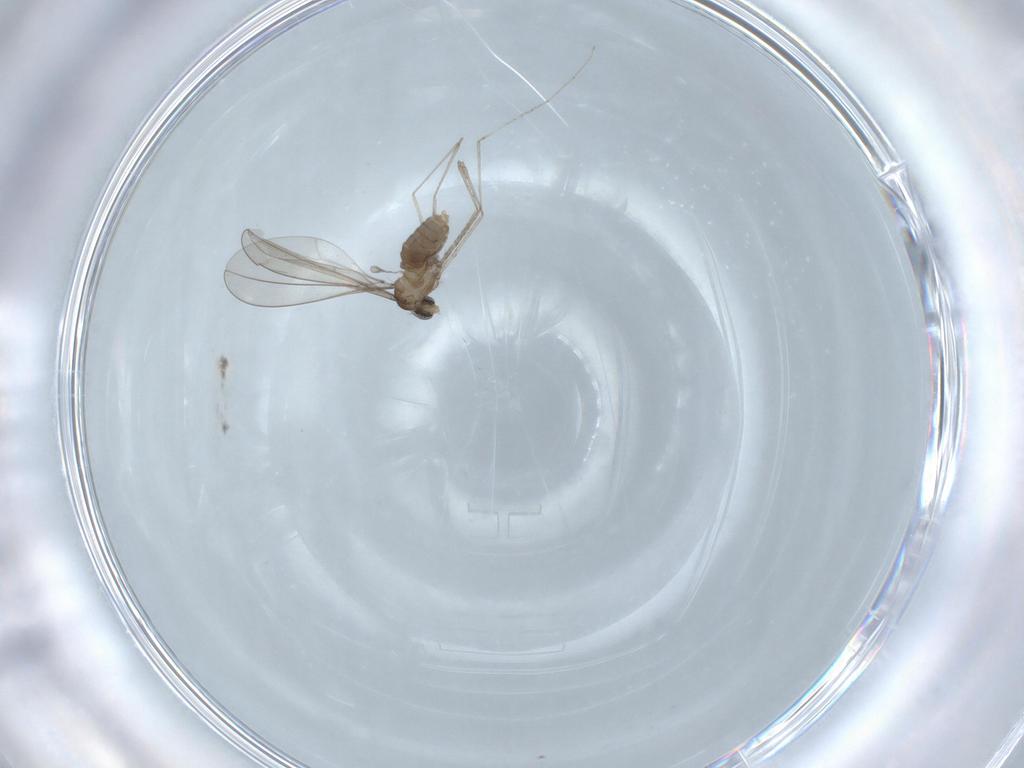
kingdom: Animalia
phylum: Arthropoda
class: Insecta
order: Diptera
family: Cecidomyiidae
